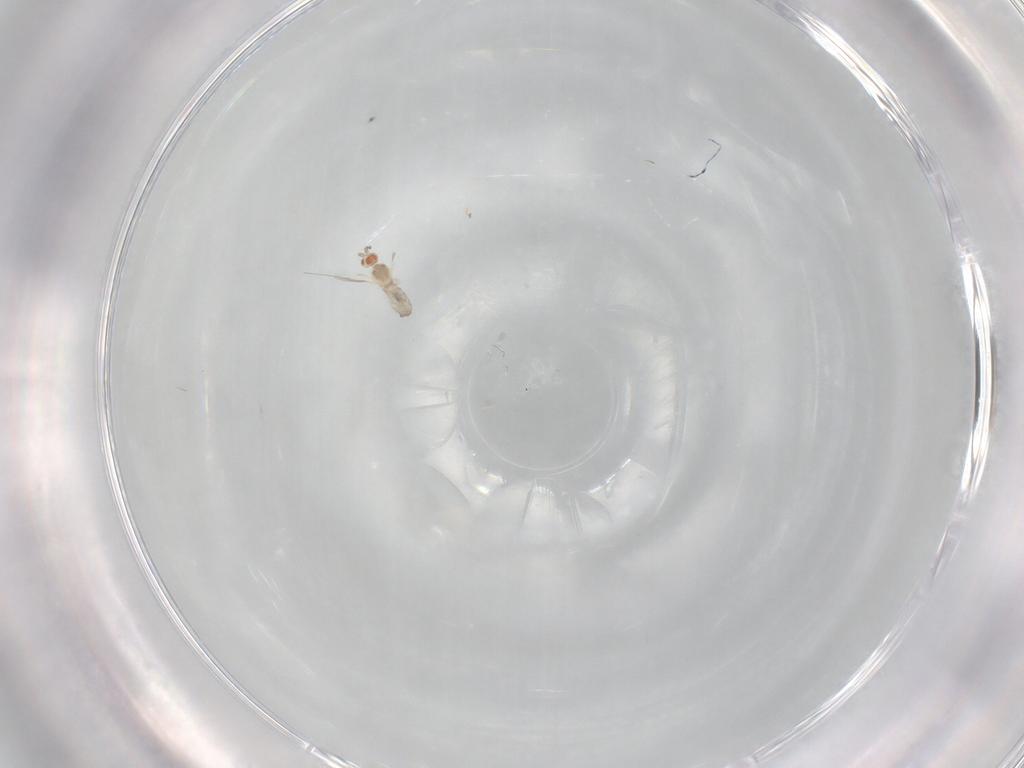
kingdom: Animalia
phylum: Arthropoda
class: Insecta
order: Diptera
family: Cecidomyiidae
